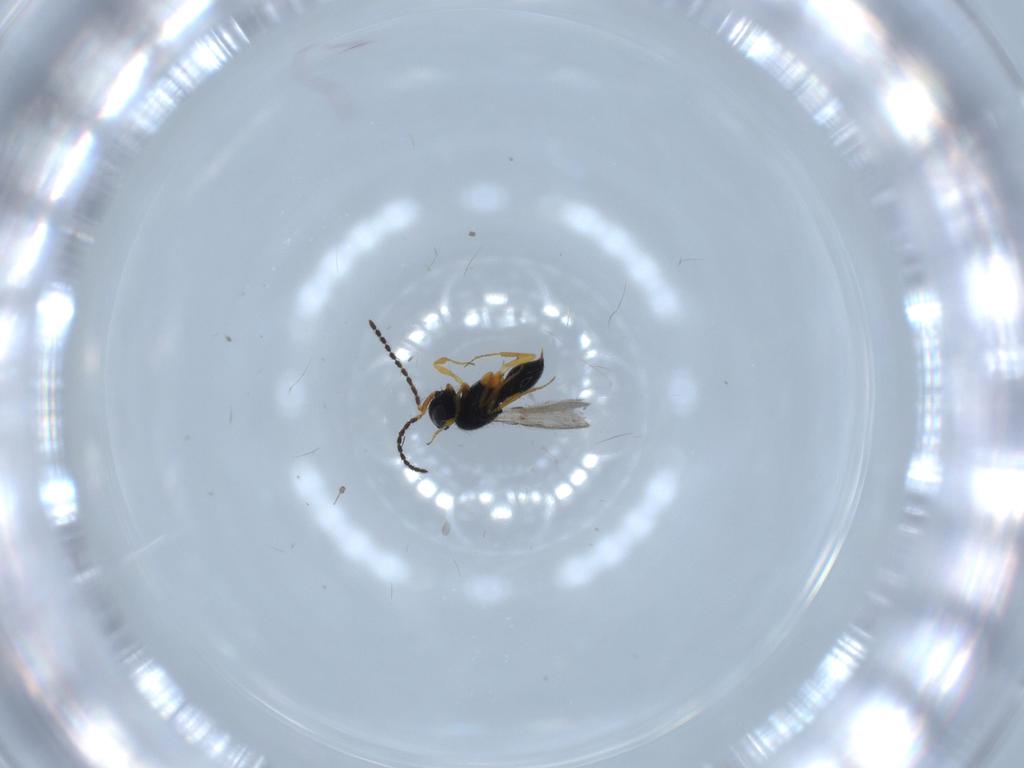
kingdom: Animalia
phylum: Arthropoda
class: Insecta
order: Hymenoptera
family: Scelionidae
